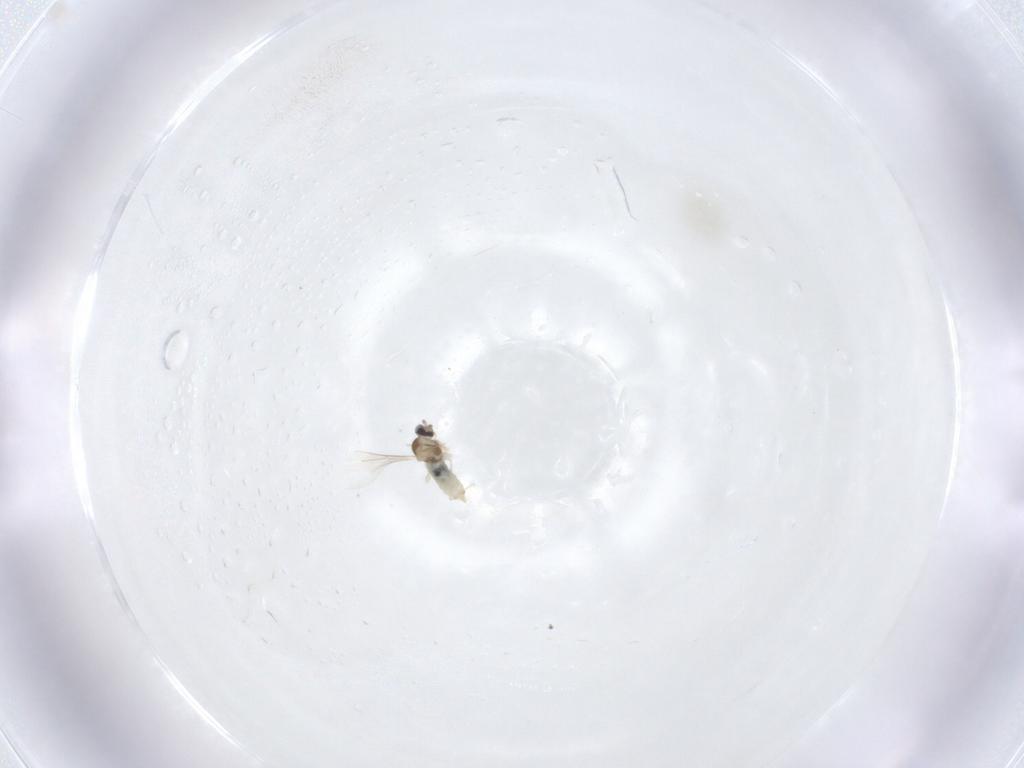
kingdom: Animalia
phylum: Arthropoda
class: Insecta
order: Diptera
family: Cecidomyiidae
